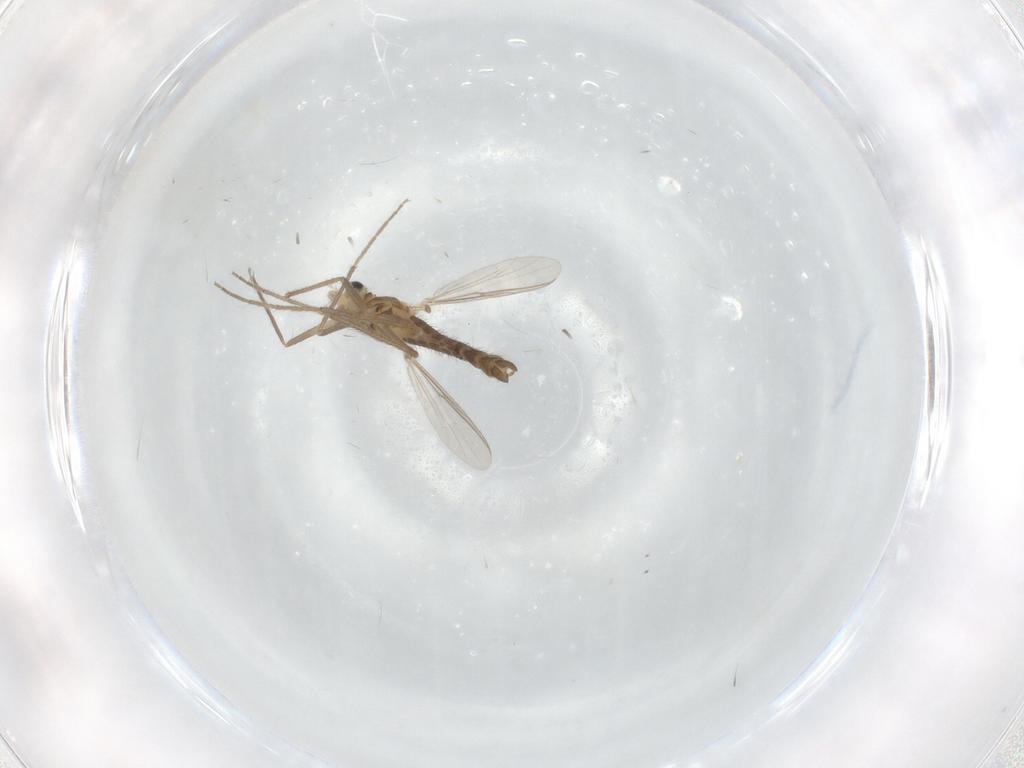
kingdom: Animalia
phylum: Arthropoda
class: Insecta
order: Diptera
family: Chironomidae
